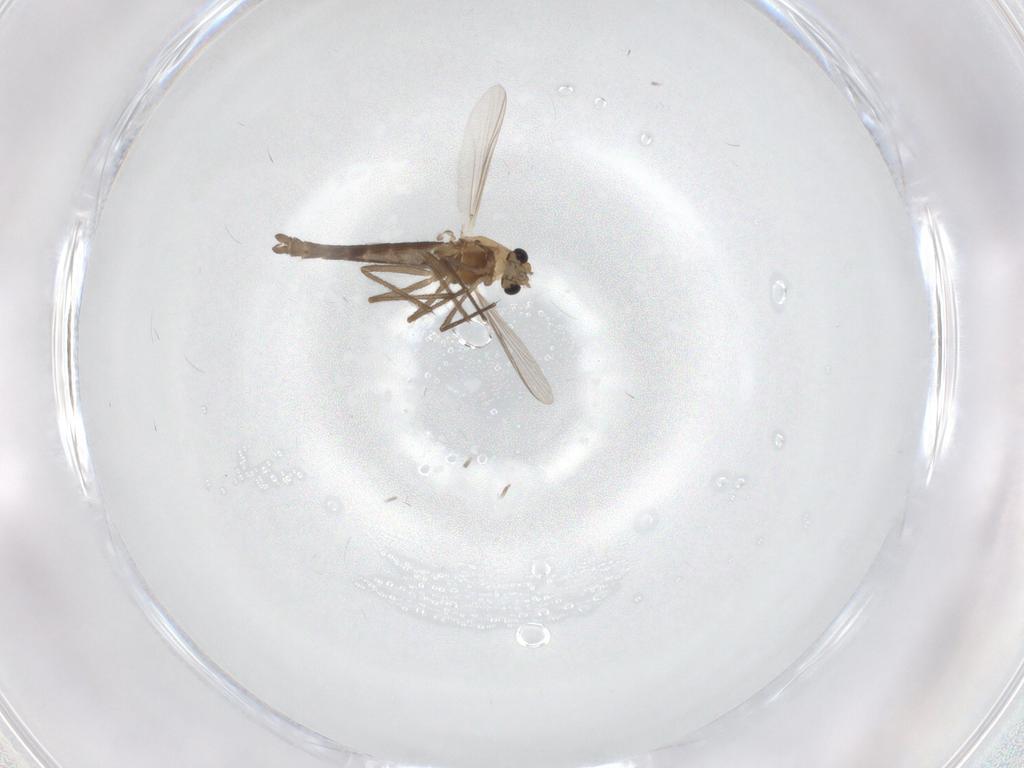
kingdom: Animalia
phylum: Arthropoda
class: Insecta
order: Diptera
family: Chironomidae
